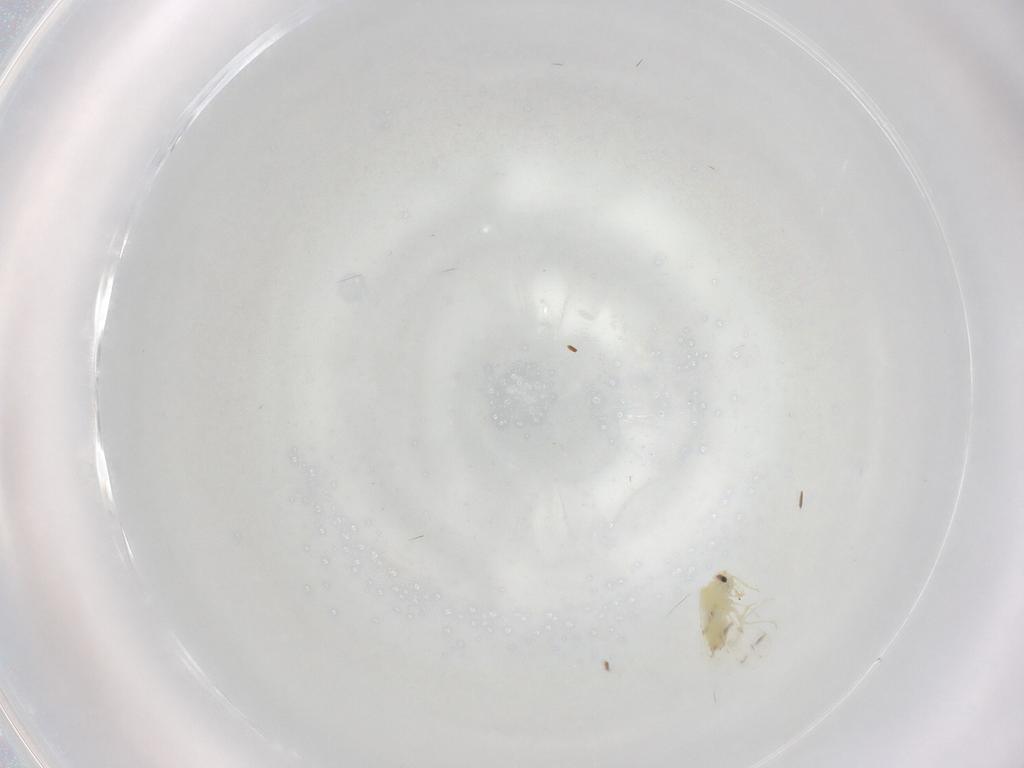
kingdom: Animalia
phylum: Arthropoda
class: Insecta
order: Hemiptera
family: Aleyrodidae
